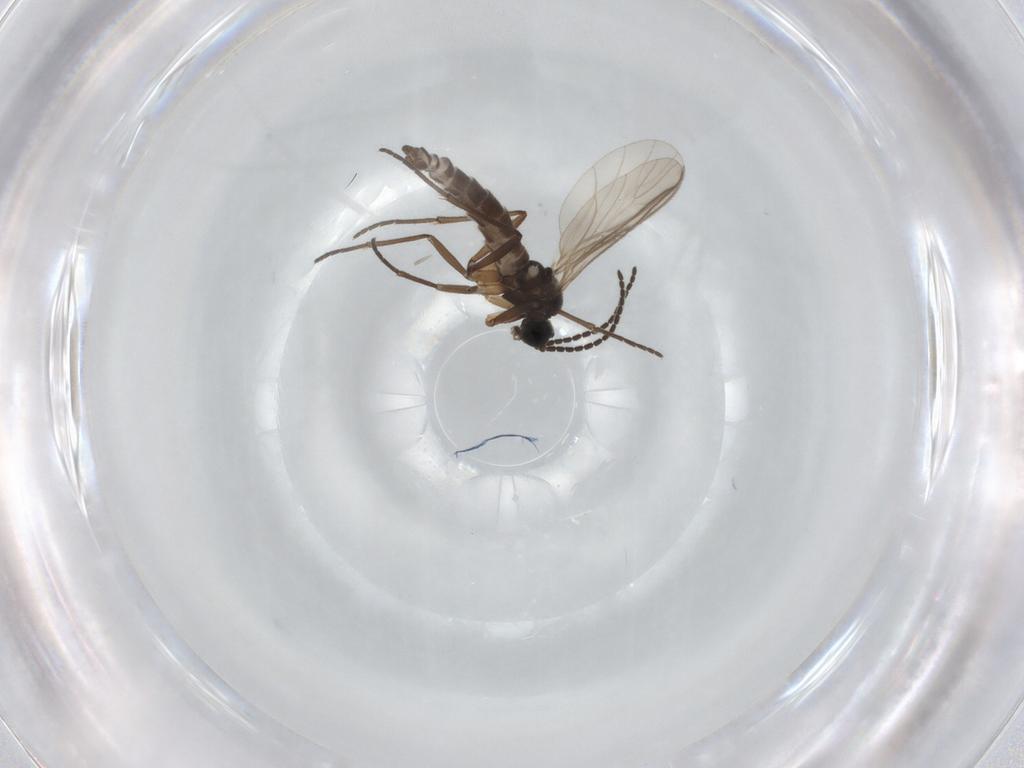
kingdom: Animalia
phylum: Arthropoda
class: Insecta
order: Diptera
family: Sciaridae
